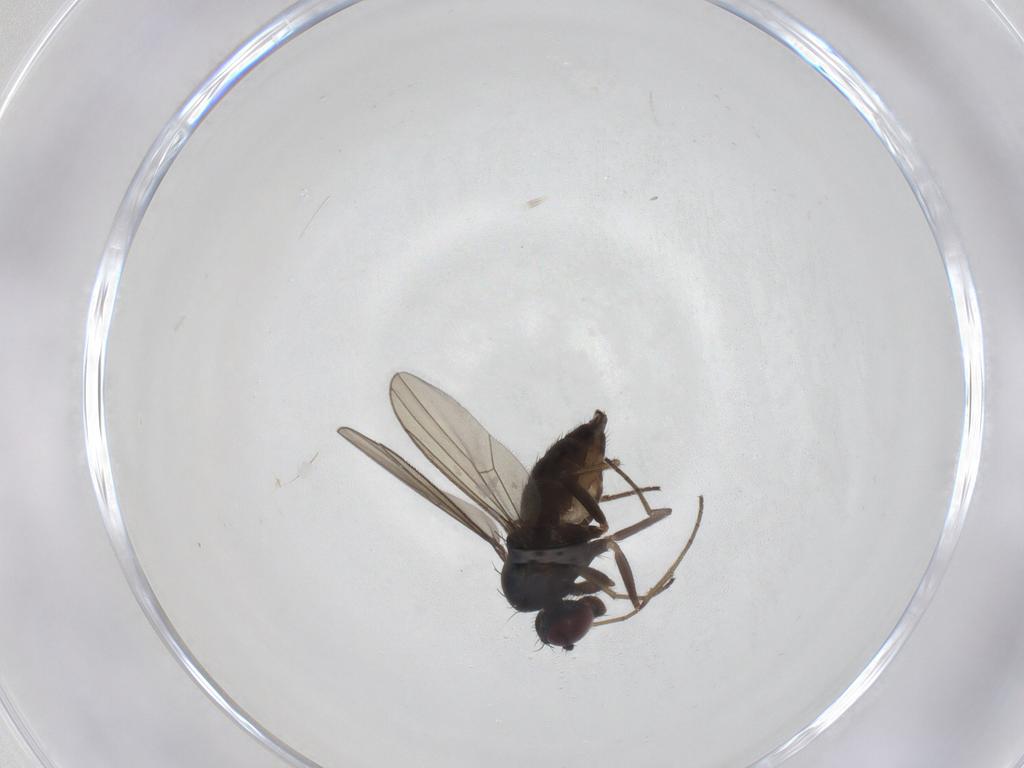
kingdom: Animalia
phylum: Arthropoda
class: Insecta
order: Diptera
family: Dolichopodidae
